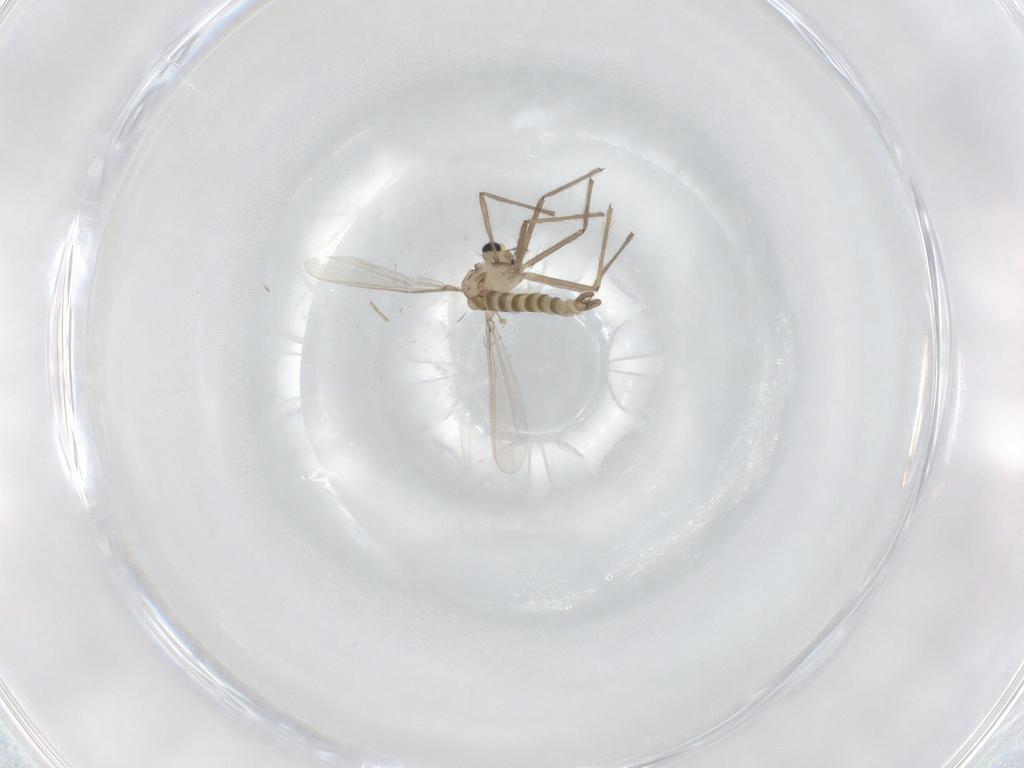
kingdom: Animalia
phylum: Arthropoda
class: Insecta
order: Diptera
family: Chironomidae
